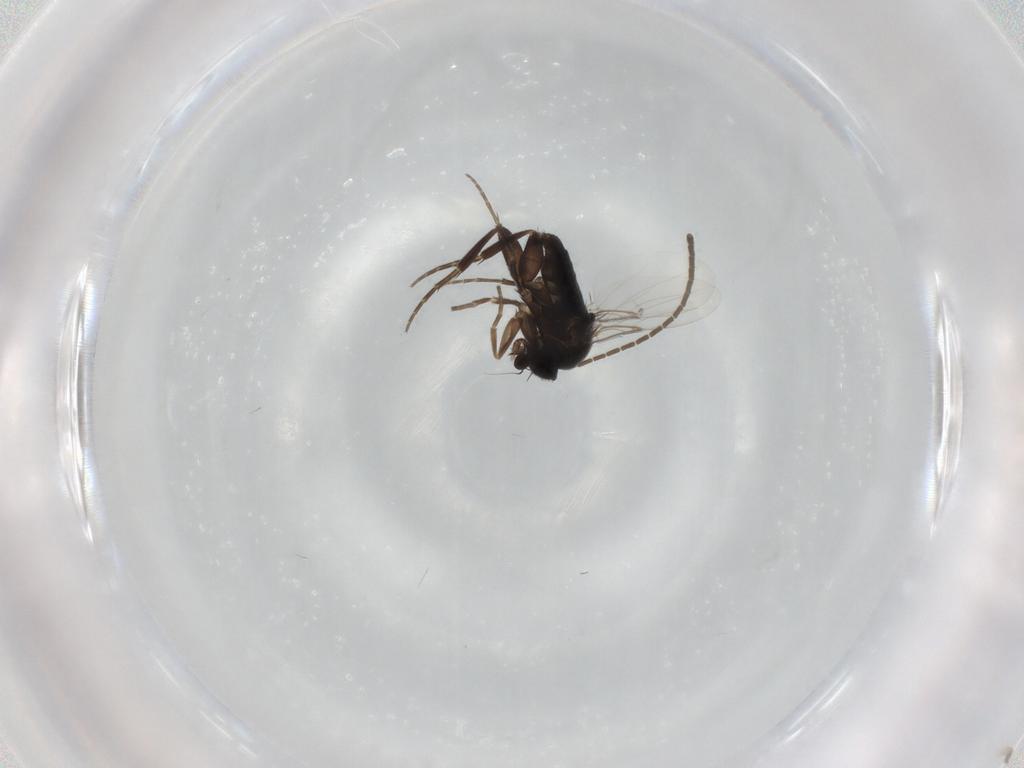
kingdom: Animalia
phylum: Arthropoda
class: Insecta
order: Diptera
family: Phoridae
